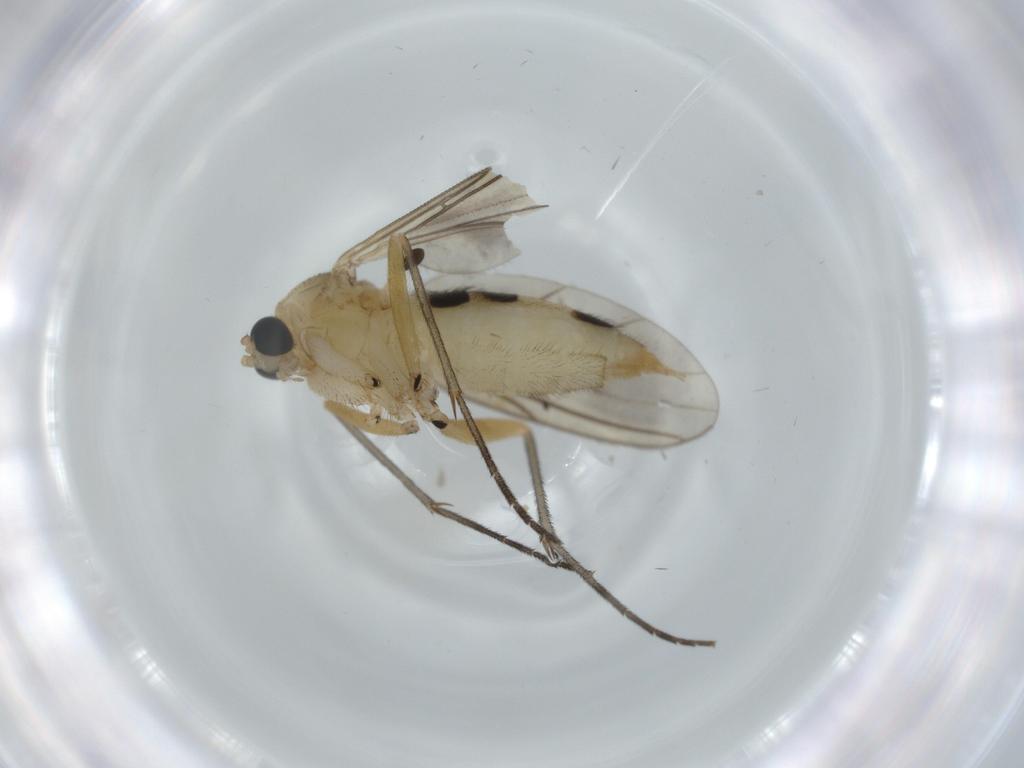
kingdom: Animalia
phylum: Arthropoda
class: Insecta
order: Diptera
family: Sciaridae
